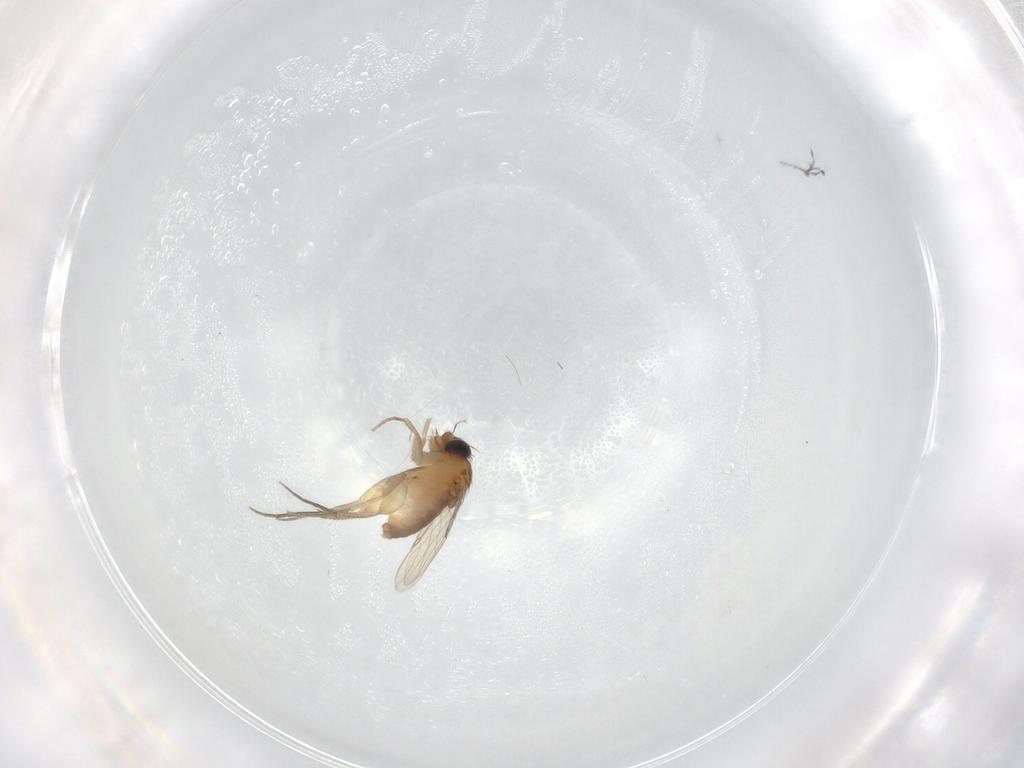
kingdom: Animalia
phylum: Arthropoda
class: Insecta
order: Diptera
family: Phoridae
